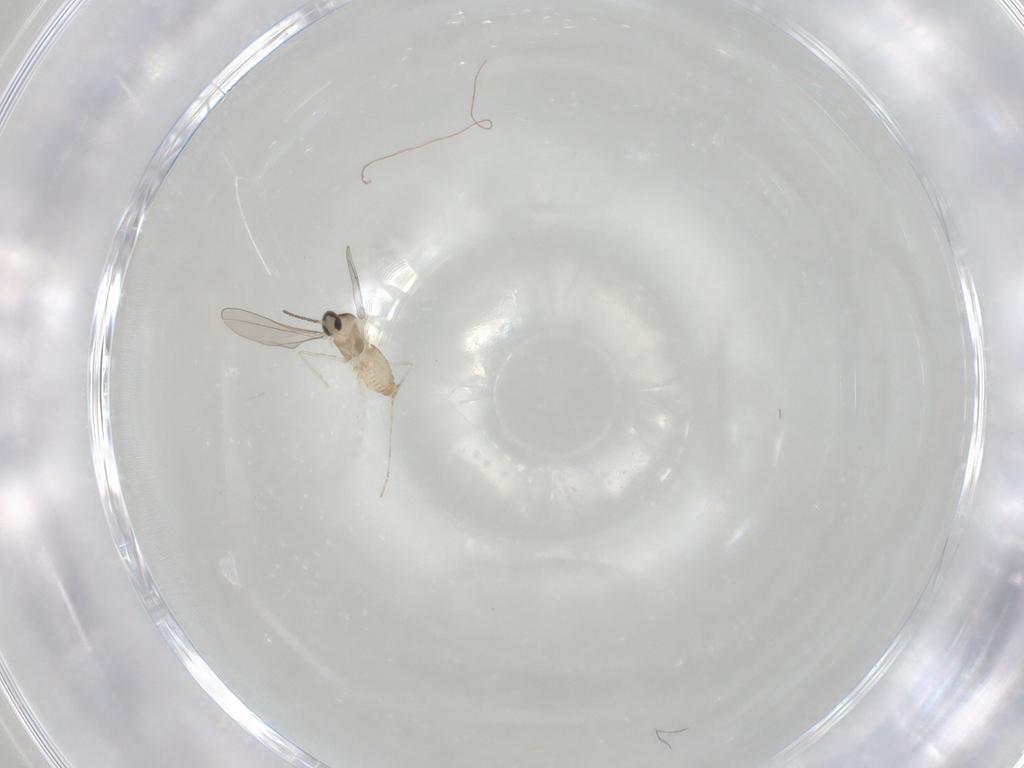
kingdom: Animalia
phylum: Arthropoda
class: Insecta
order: Diptera
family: Cecidomyiidae
